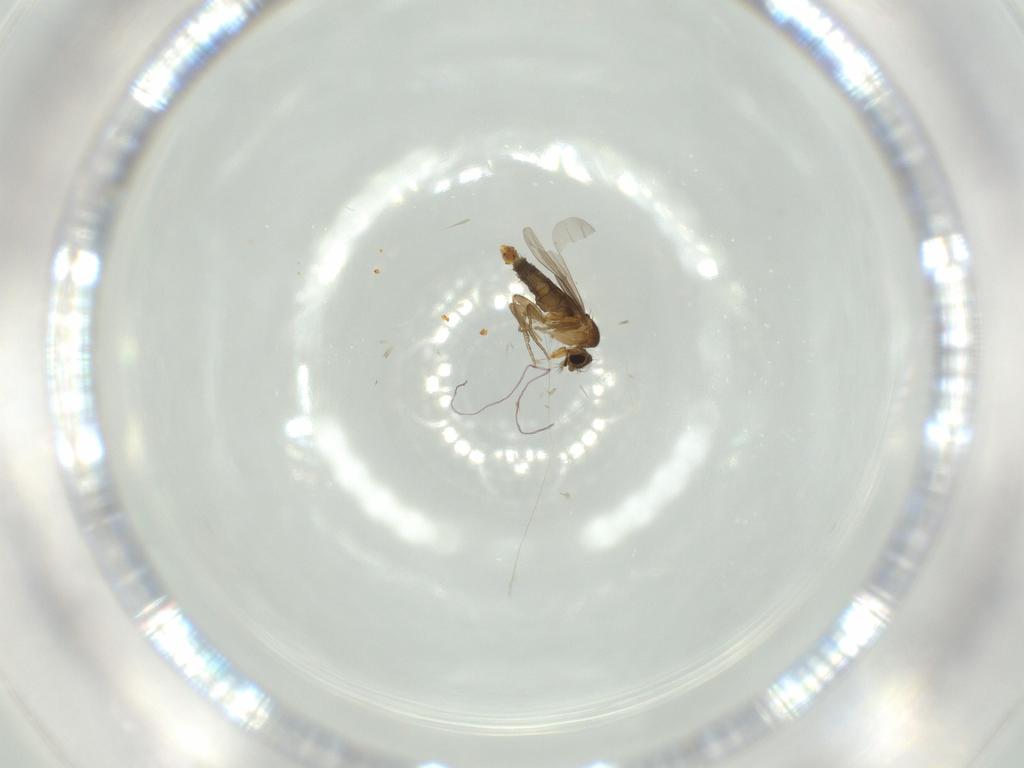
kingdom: Animalia
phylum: Arthropoda
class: Insecta
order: Diptera
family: Phoridae
